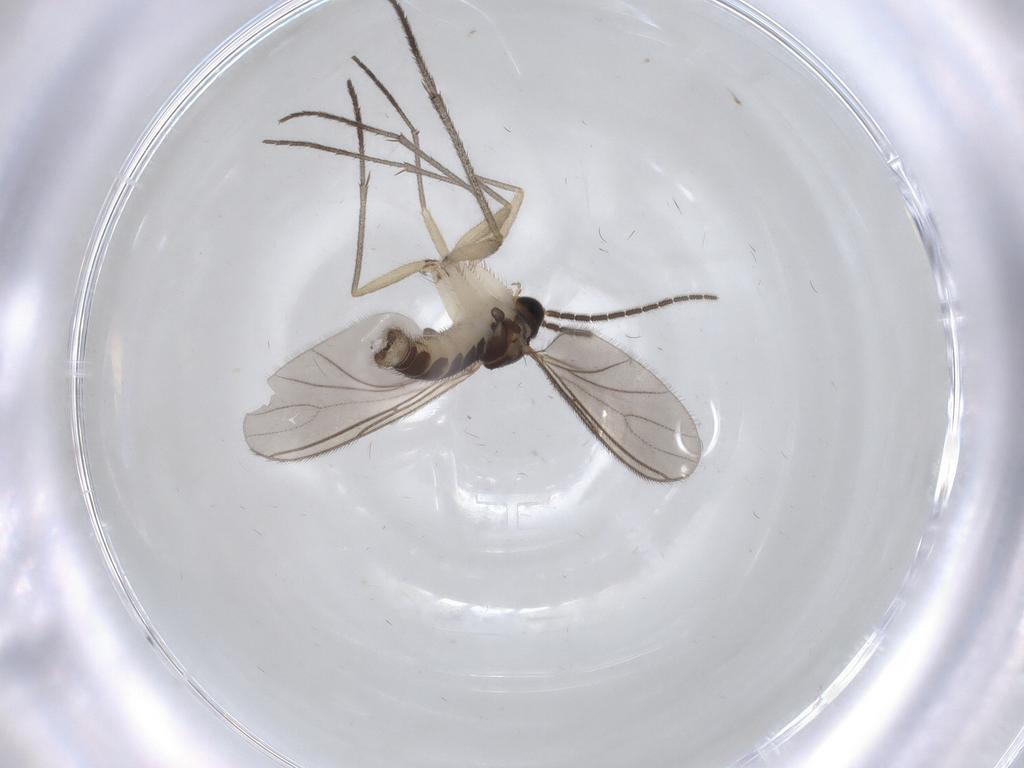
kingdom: Animalia
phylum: Arthropoda
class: Insecta
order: Diptera
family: Sciaridae
